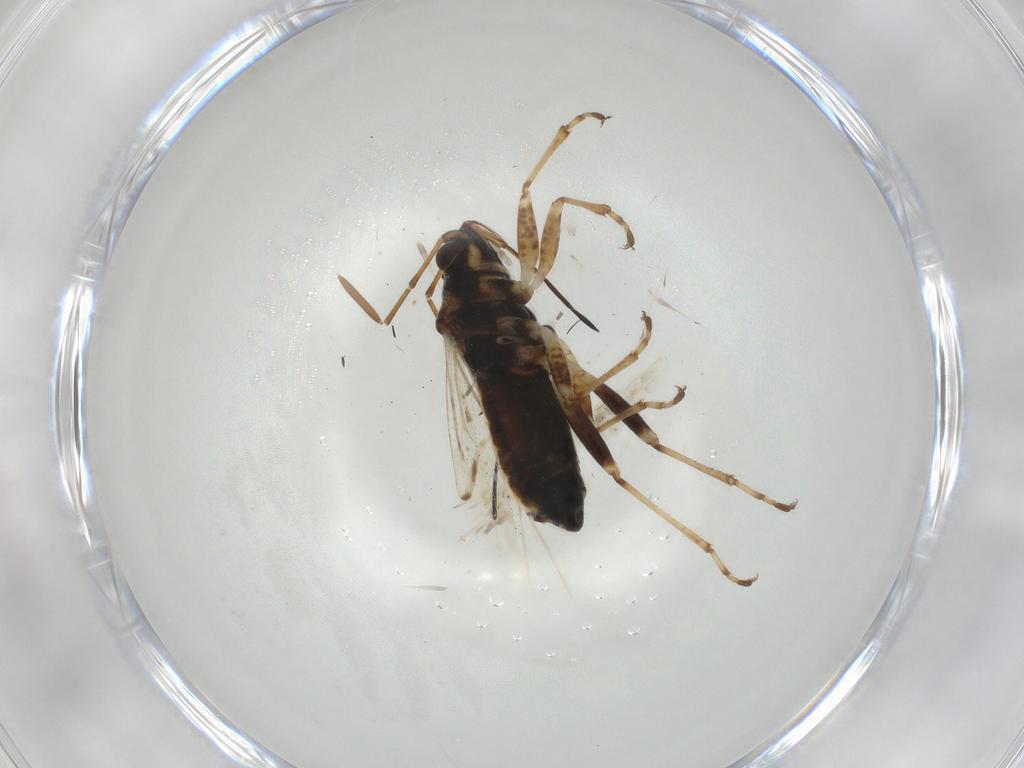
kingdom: Animalia
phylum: Arthropoda
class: Insecta
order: Hemiptera
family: Lygaeidae
